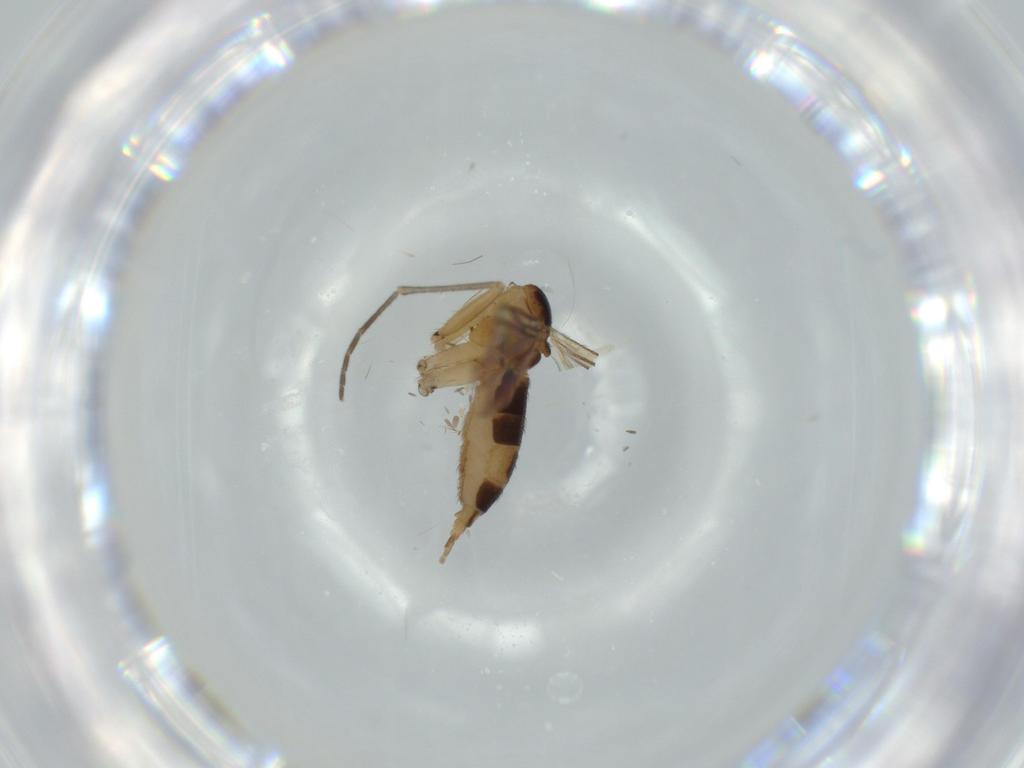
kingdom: Animalia
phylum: Arthropoda
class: Insecta
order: Diptera
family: Sciaridae
